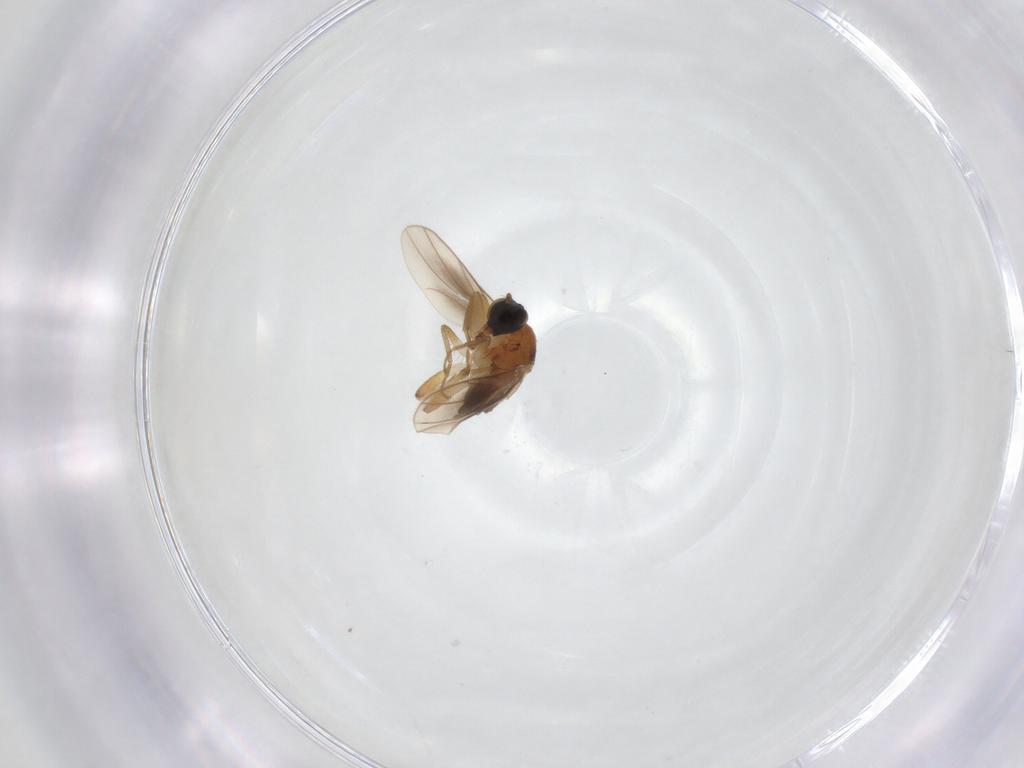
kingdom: Animalia
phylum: Arthropoda
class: Insecta
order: Diptera
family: Hybotidae
